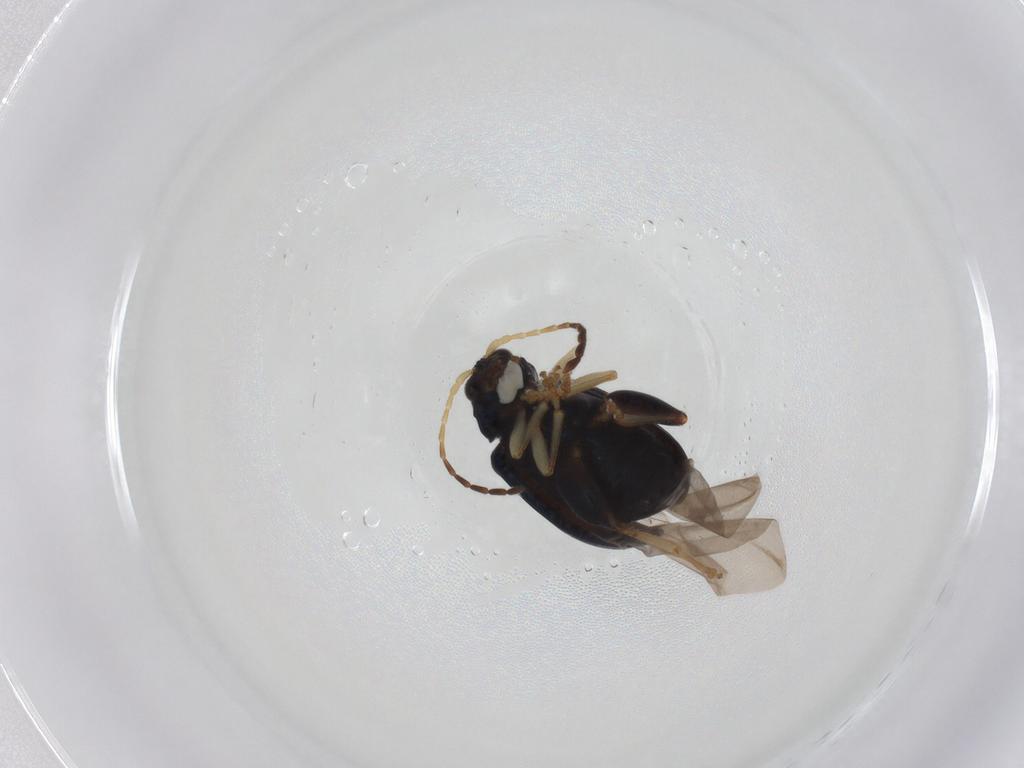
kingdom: Animalia
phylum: Arthropoda
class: Insecta
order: Coleoptera
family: Chrysomelidae
